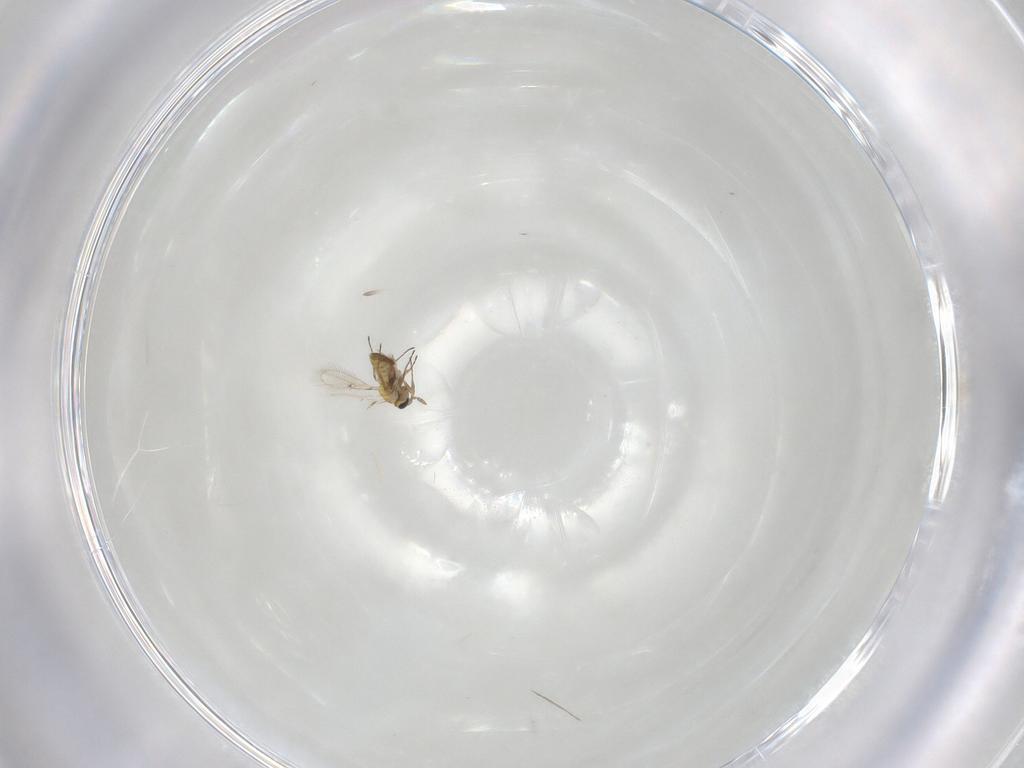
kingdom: Animalia
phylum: Arthropoda
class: Insecta
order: Hymenoptera
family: Trichogrammatidae
